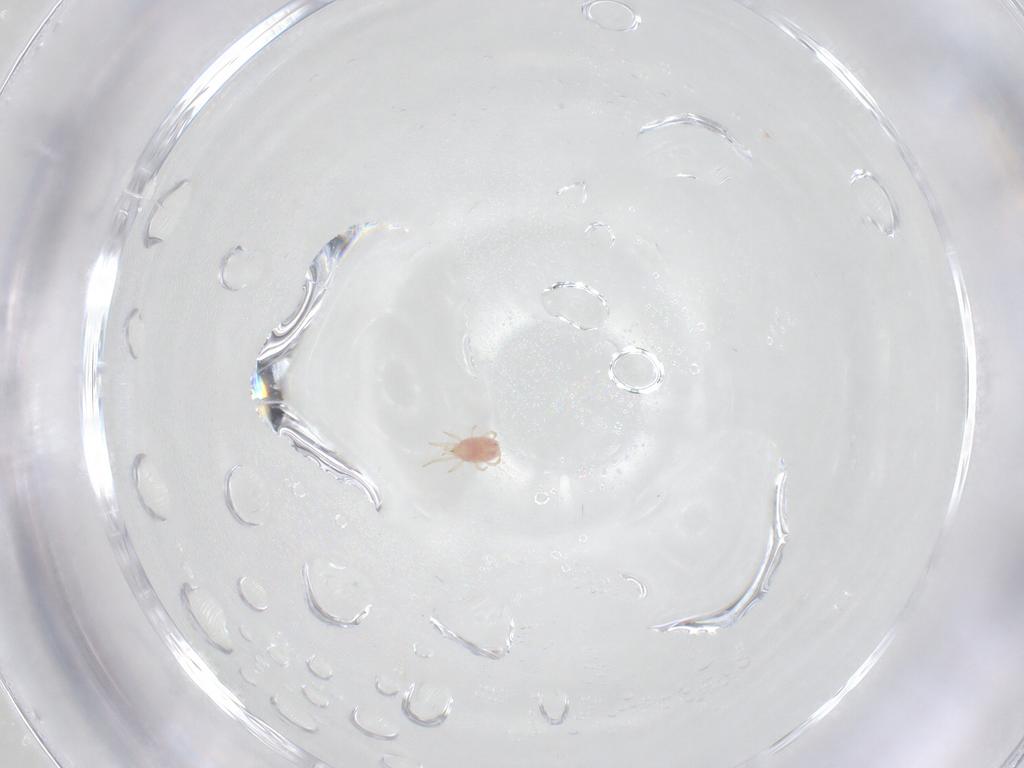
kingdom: Animalia
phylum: Arthropoda
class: Arachnida
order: Mesostigmata
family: Phytoseiidae
